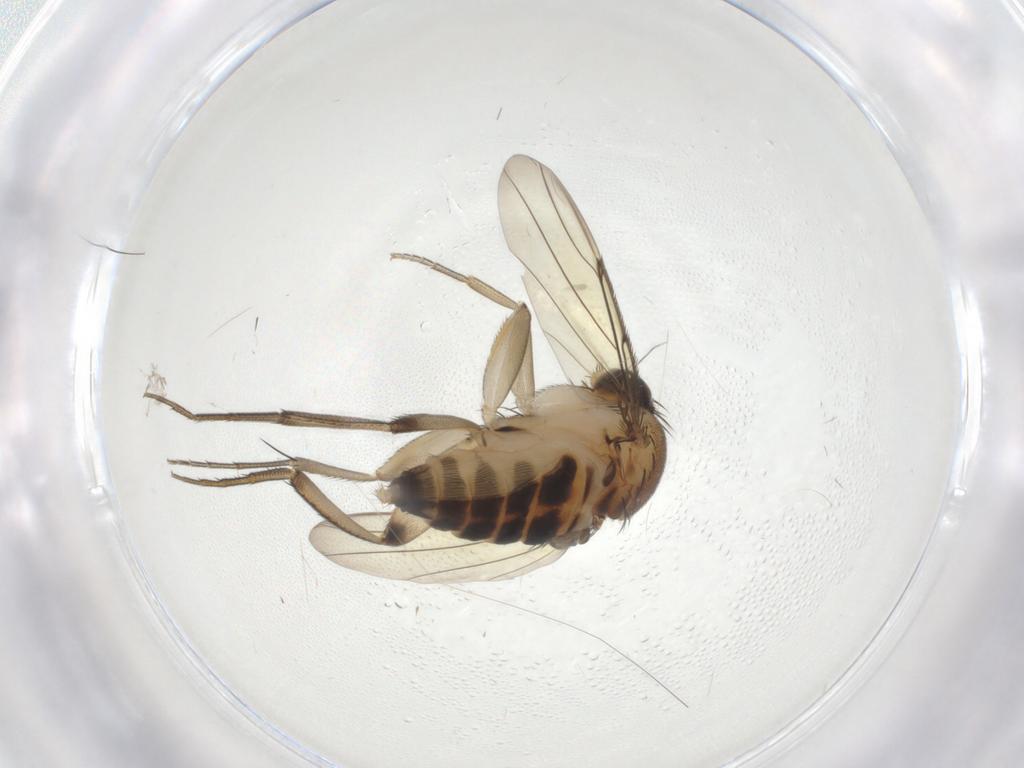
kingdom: Animalia
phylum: Arthropoda
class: Insecta
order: Diptera
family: Phoridae
